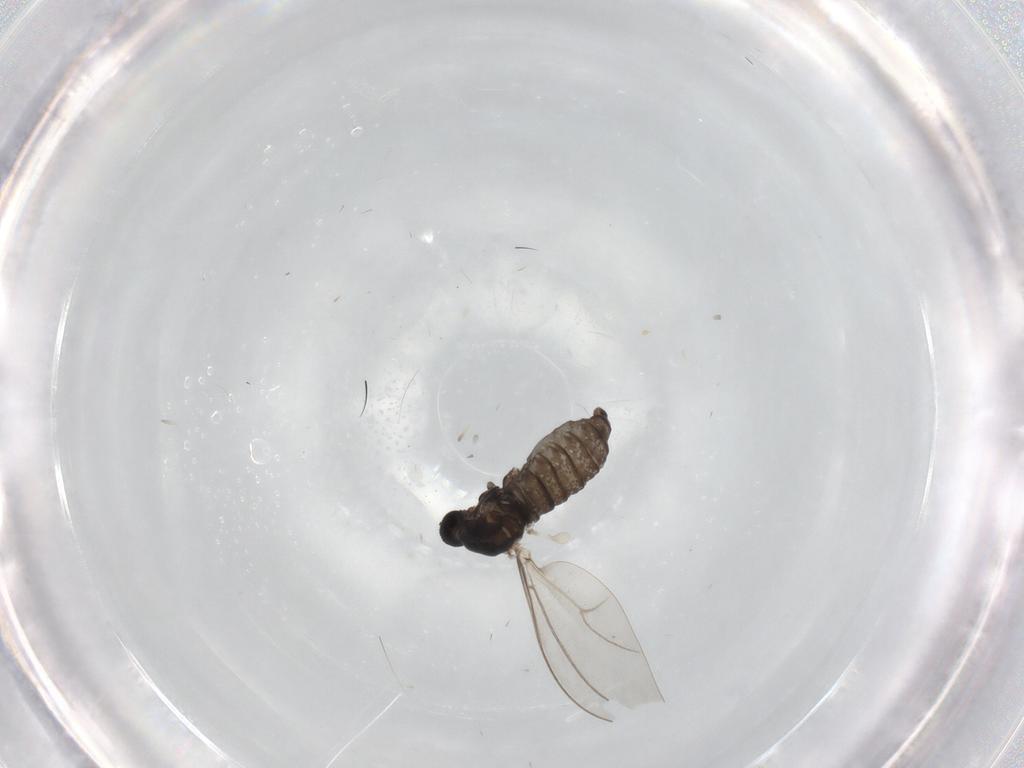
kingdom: Animalia
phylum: Arthropoda
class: Insecta
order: Diptera
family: Cecidomyiidae
